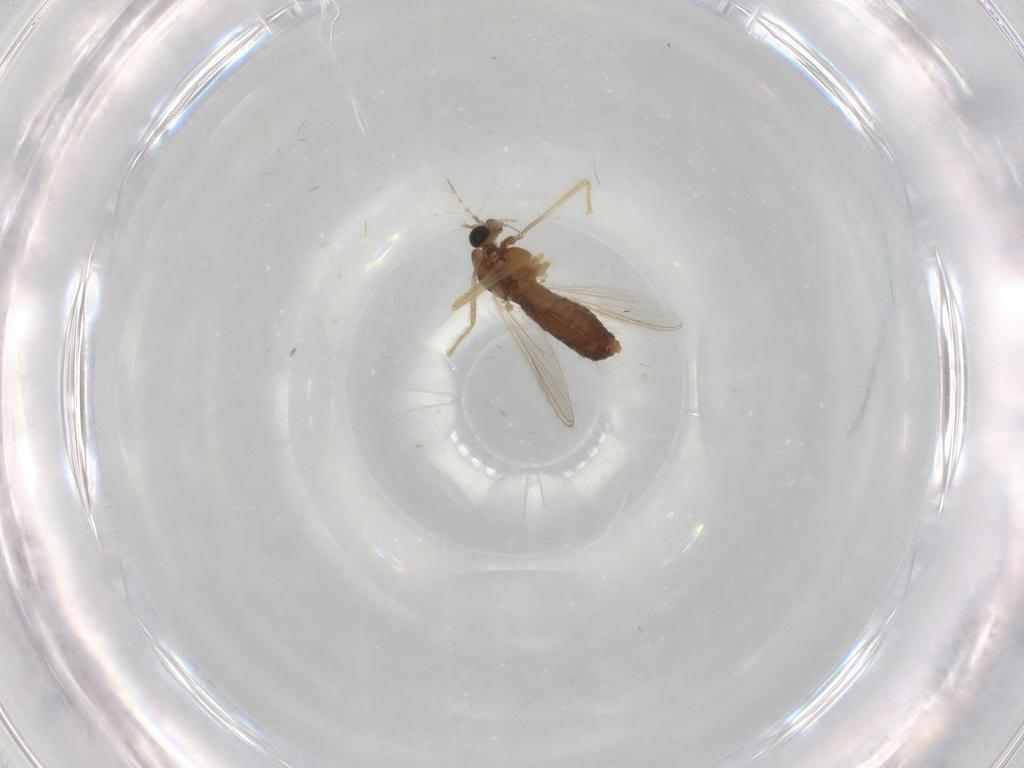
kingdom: Animalia
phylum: Arthropoda
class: Insecta
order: Diptera
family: Chironomidae
